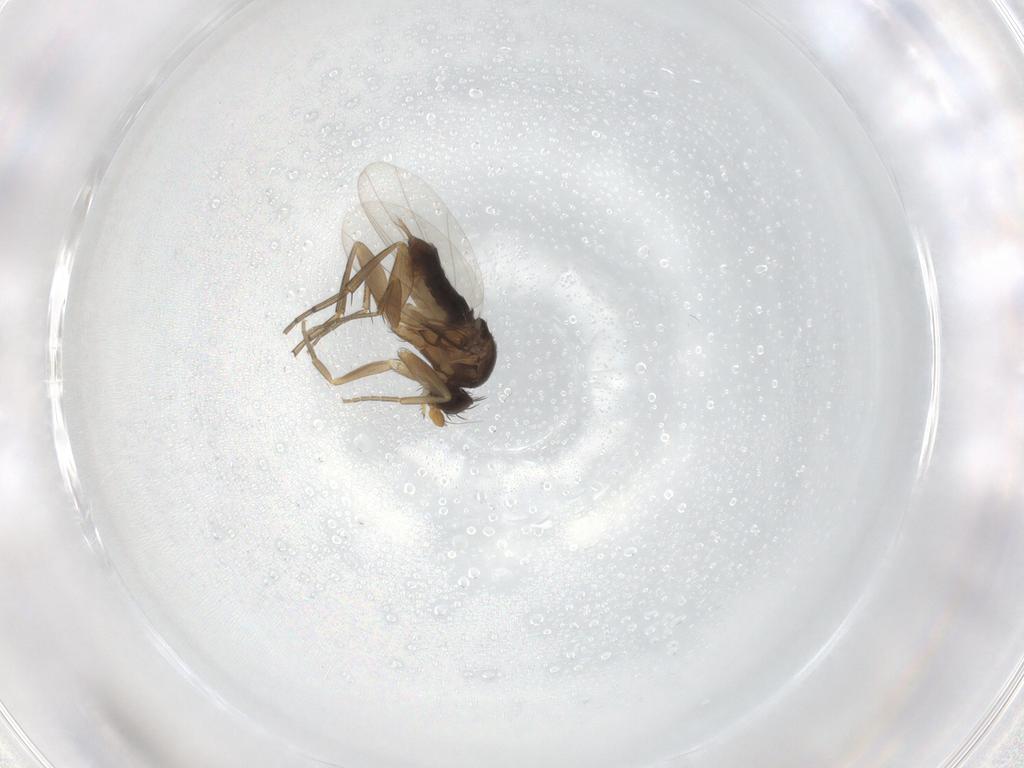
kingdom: Animalia
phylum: Arthropoda
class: Insecta
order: Diptera
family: Phoridae
